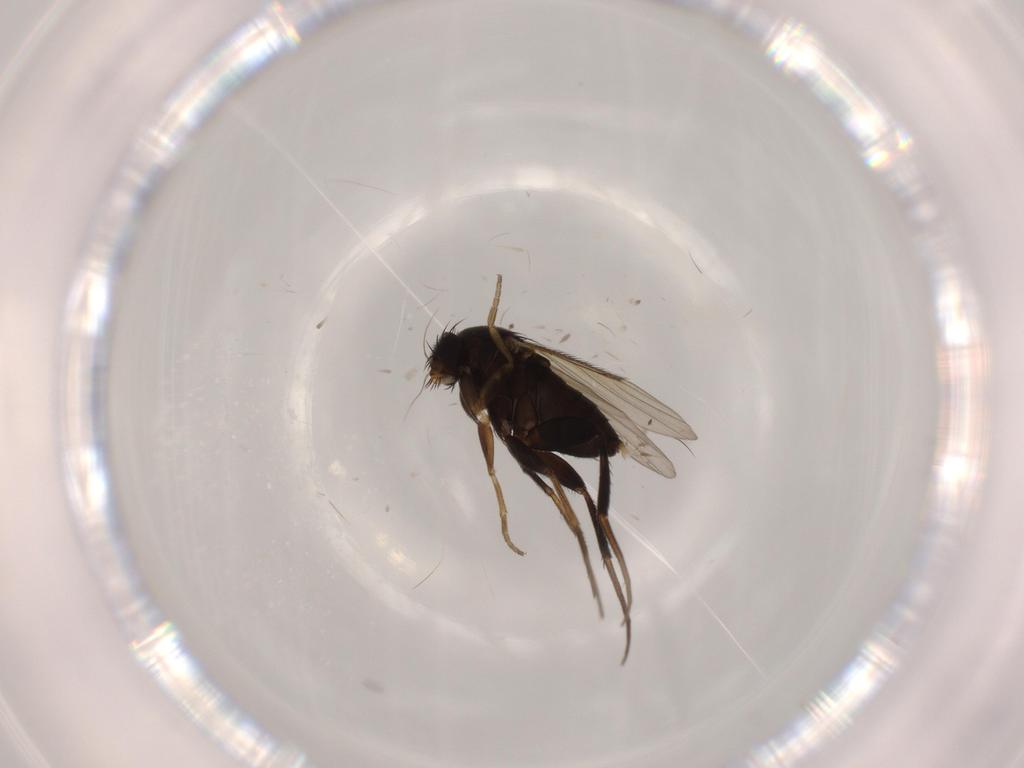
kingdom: Animalia
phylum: Arthropoda
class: Insecta
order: Diptera
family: Phoridae
